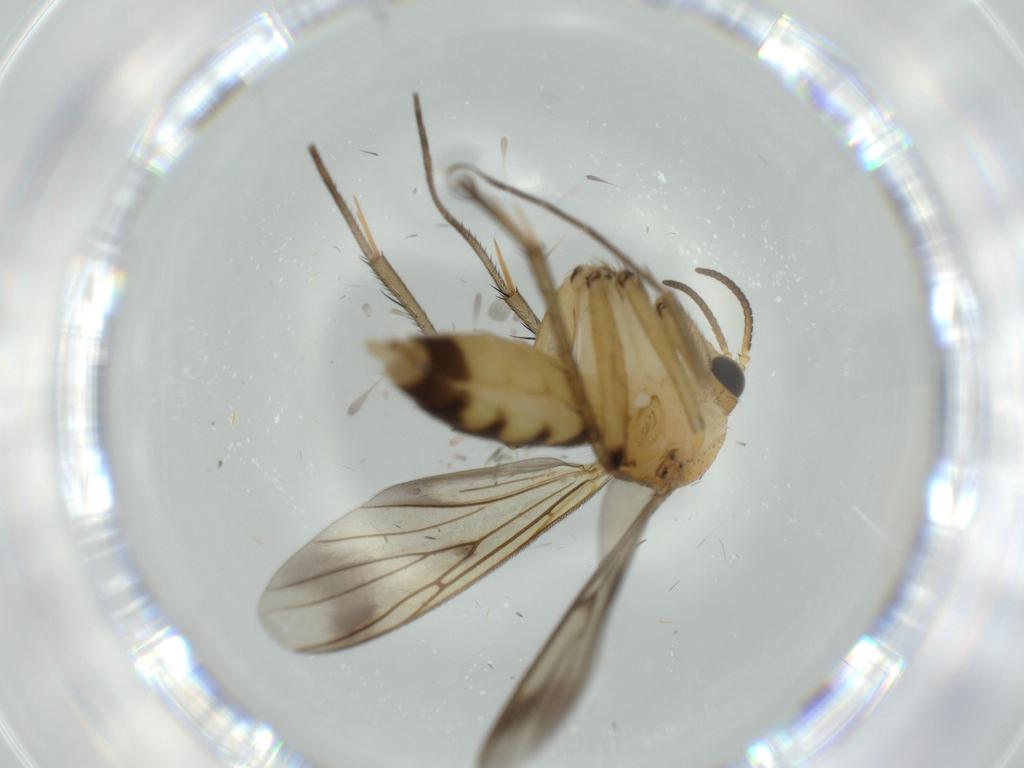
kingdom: Animalia
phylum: Arthropoda
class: Insecta
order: Diptera
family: Mycetophilidae
